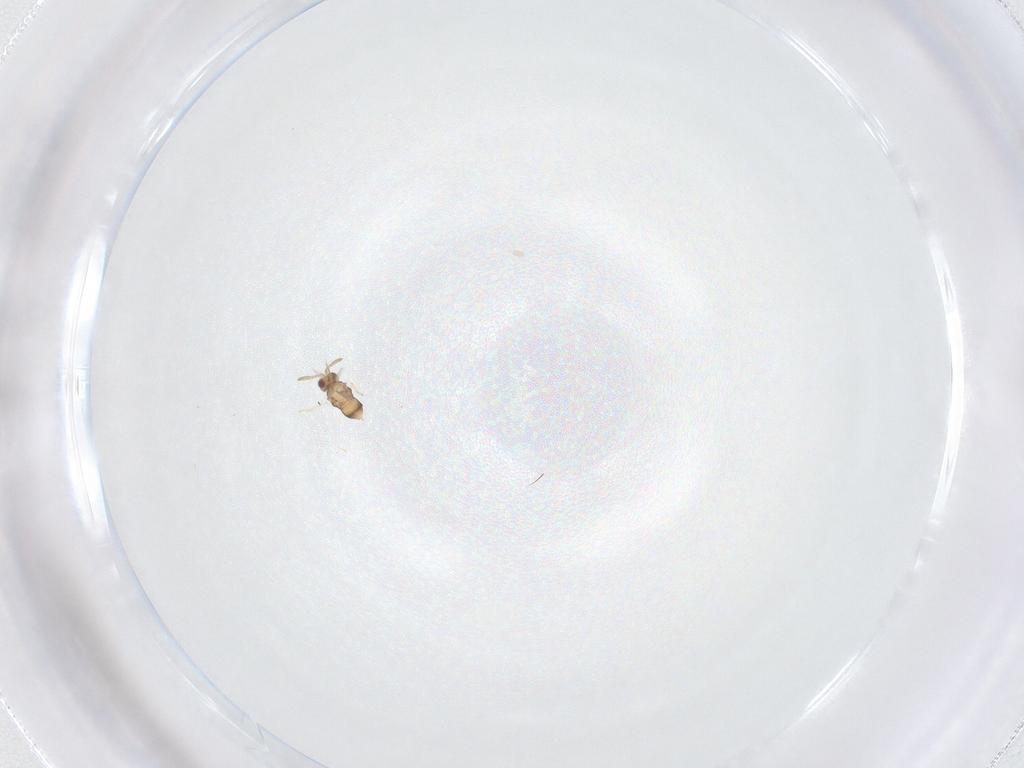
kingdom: Animalia
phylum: Arthropoda
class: Insecta
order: Hymenoptera
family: Aphelinidae
